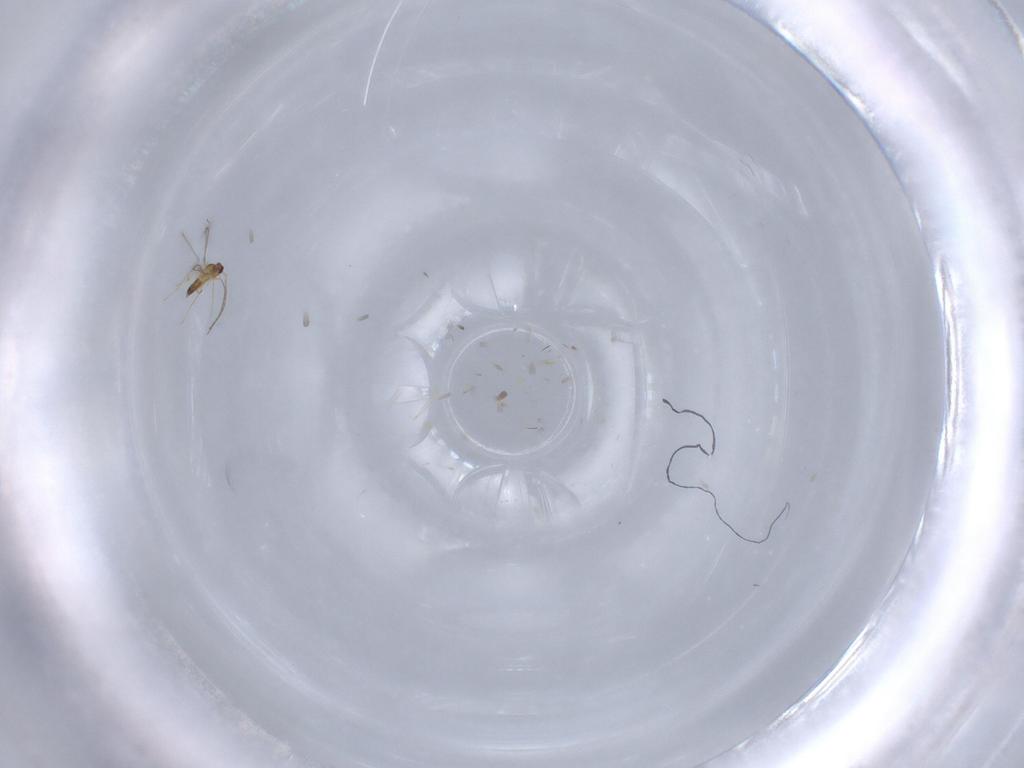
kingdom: Animalia
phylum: Arthropoda
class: Insecta
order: Hymenoptera
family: Mymaridae
